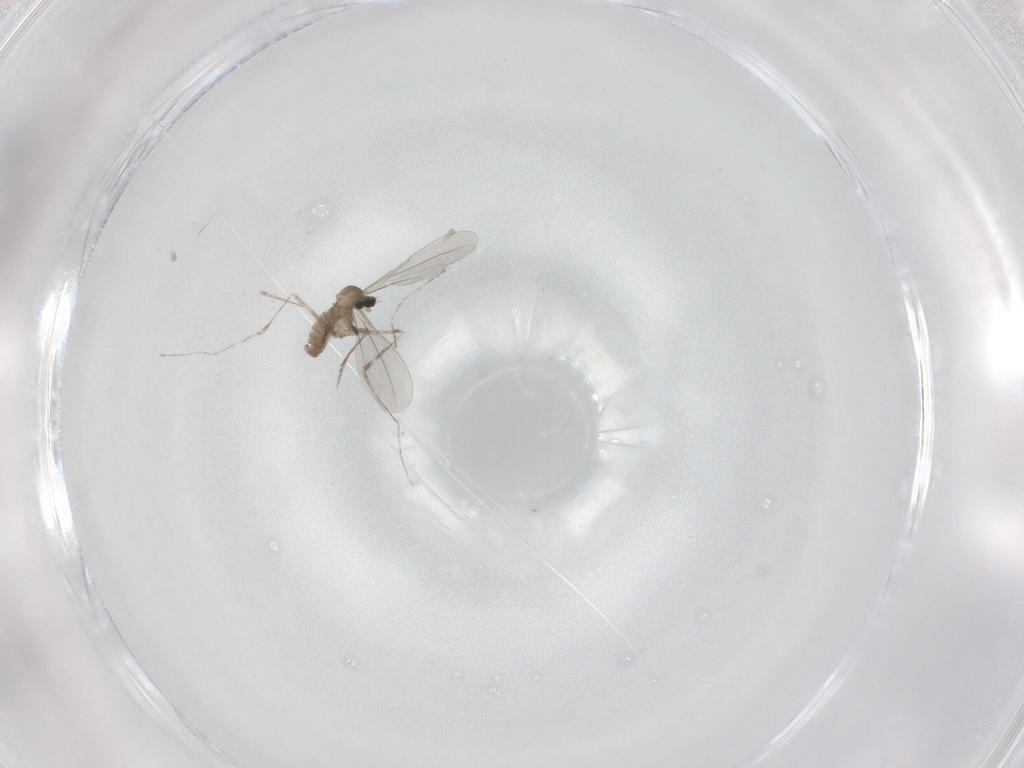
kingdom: Animalia
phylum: Arthropoda
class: Insecta
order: Diptera
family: Cecidomyiidae
